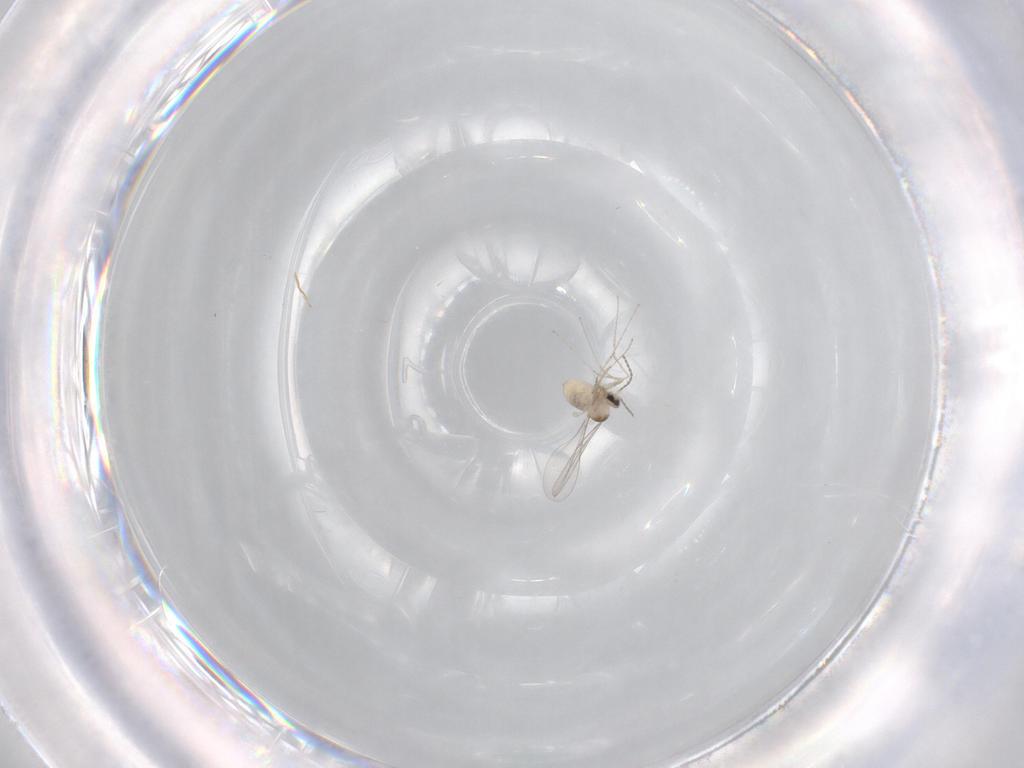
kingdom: Animalia
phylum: Arthropoda
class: Insecta
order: Diptera
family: Cecidomyiidae
